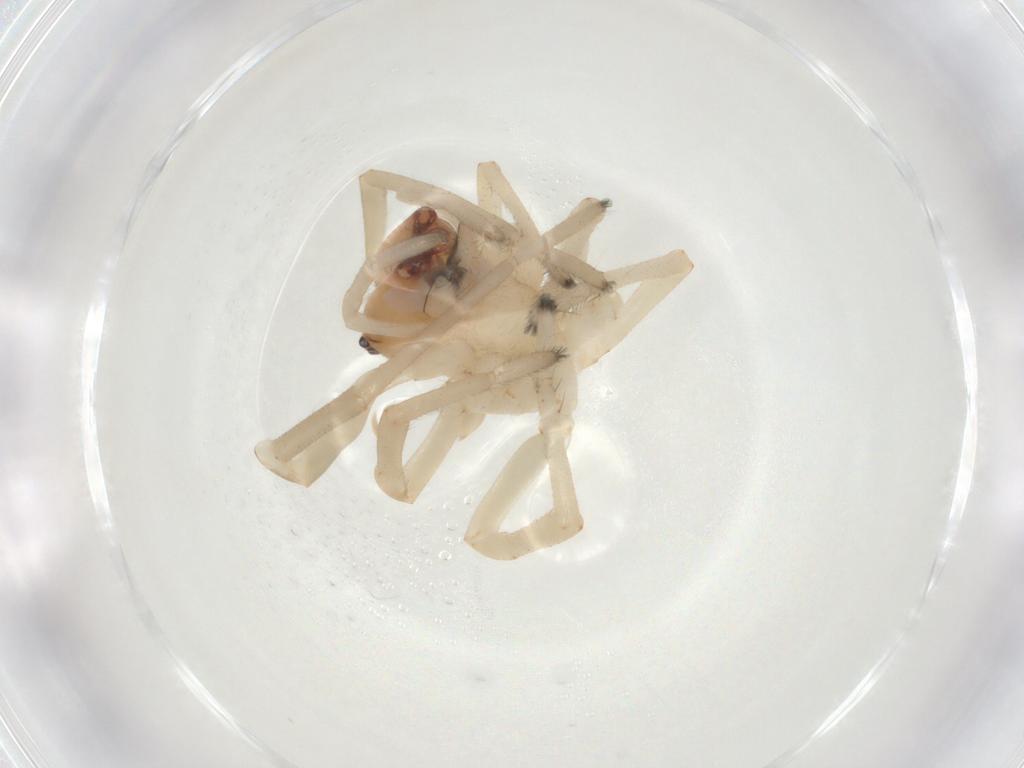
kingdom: Animalia
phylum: Arthropoda
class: Arachnida
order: Araneae
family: Cheiracanthiidae
